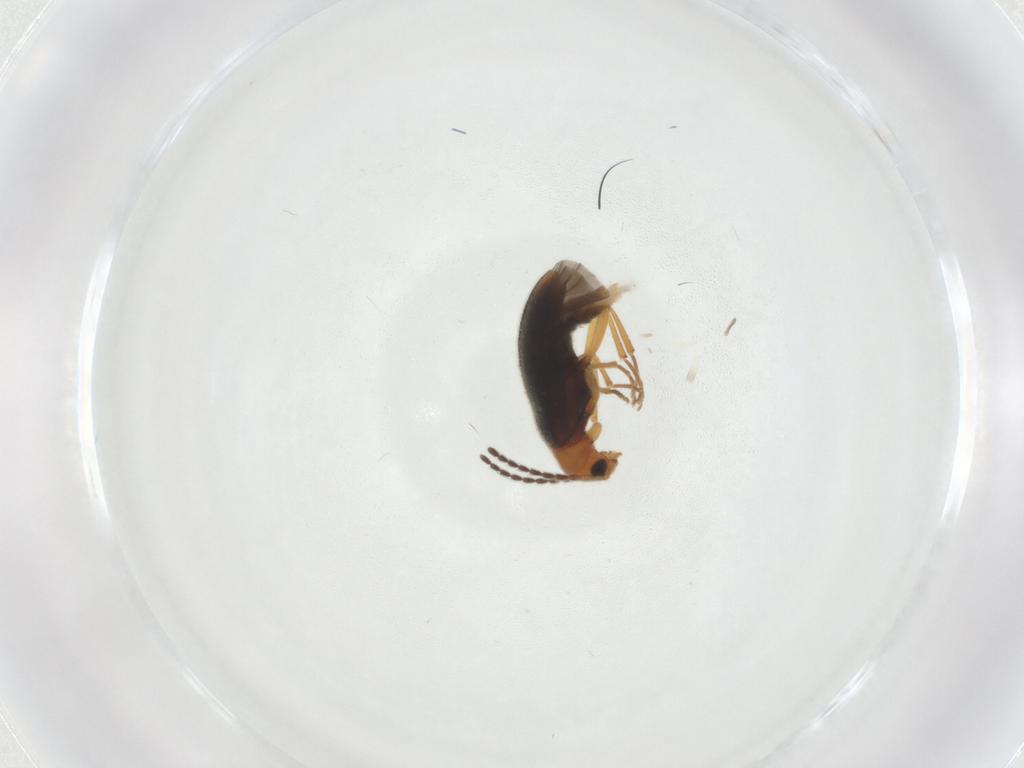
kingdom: Animalia
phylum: Arthropoda
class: Insecta
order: Coleoptera
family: Melandryidae
